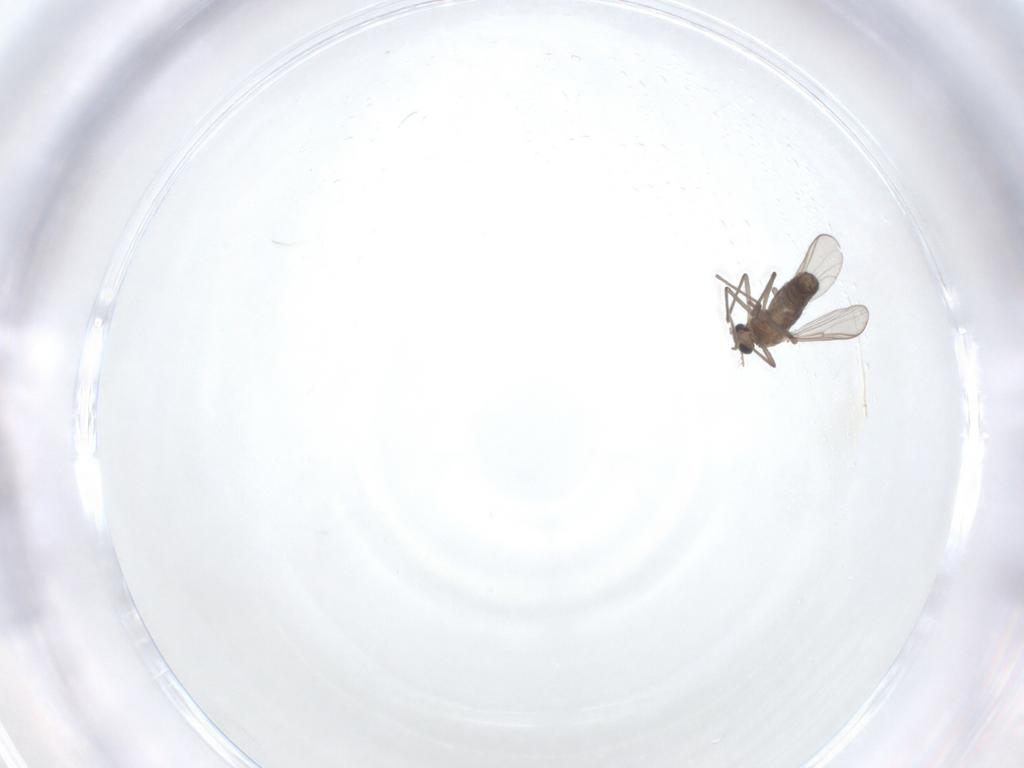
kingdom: Animalia
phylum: Arthropoda
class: Insecta
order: Diptera
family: Chironomidae
